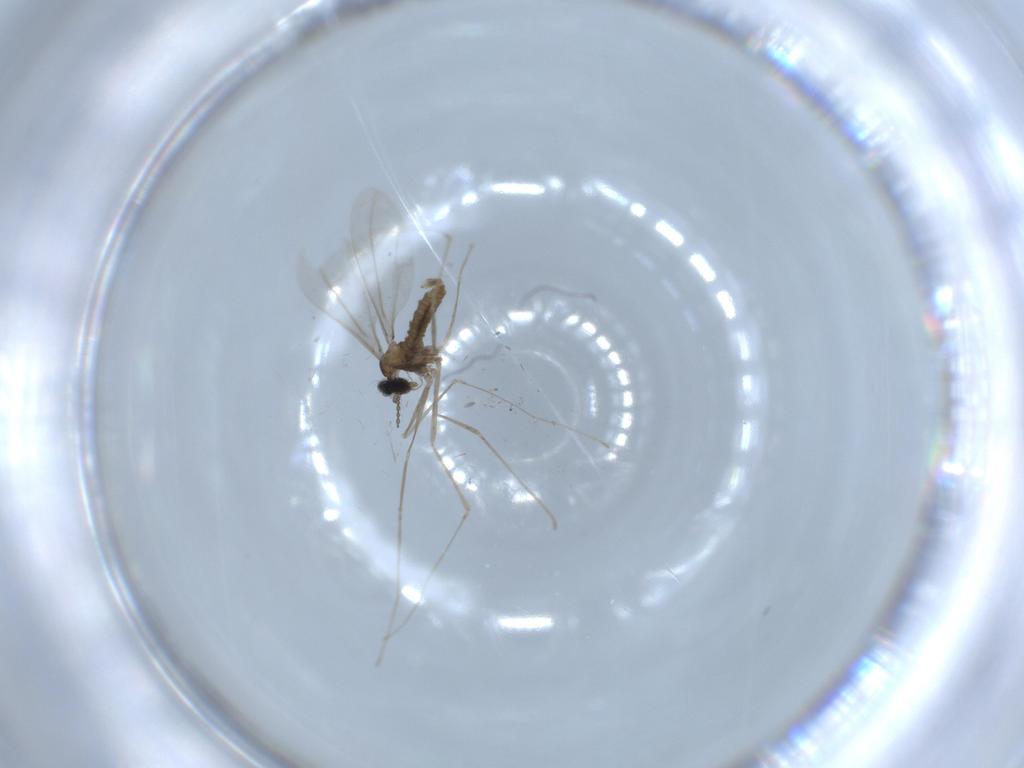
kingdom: Animalia
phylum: Arthropoda
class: Insecta
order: Diptera
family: Cecidomyiidae
